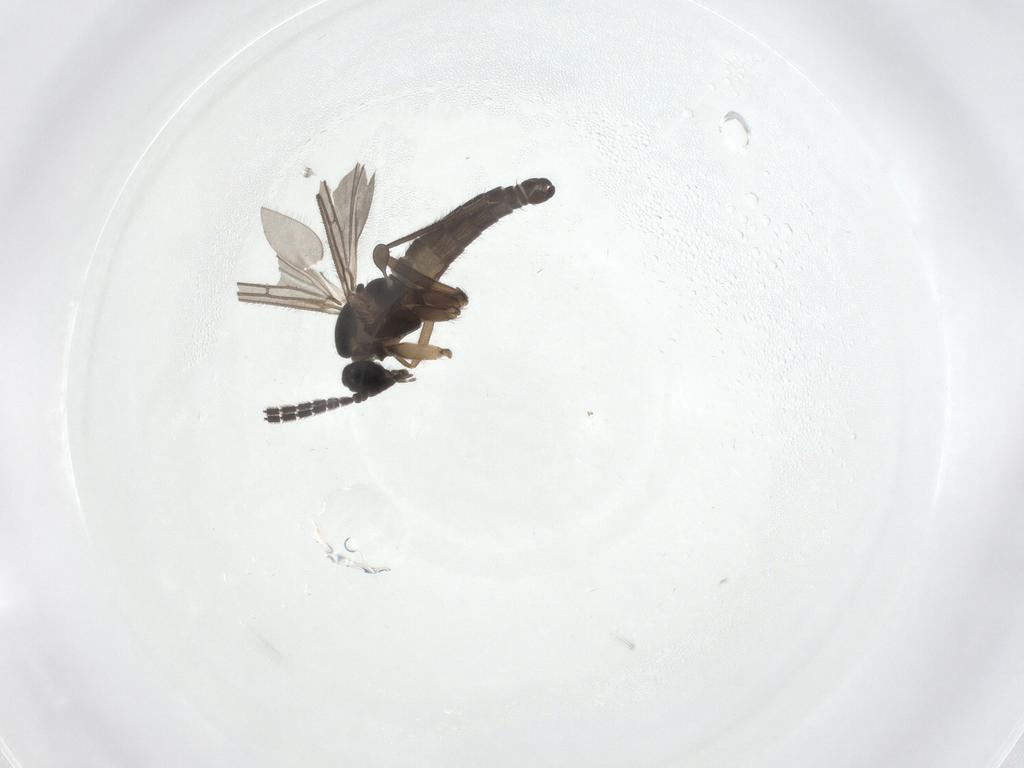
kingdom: Animalia
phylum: Arthropoda
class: Insecta
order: Diptera
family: Sciaridae
